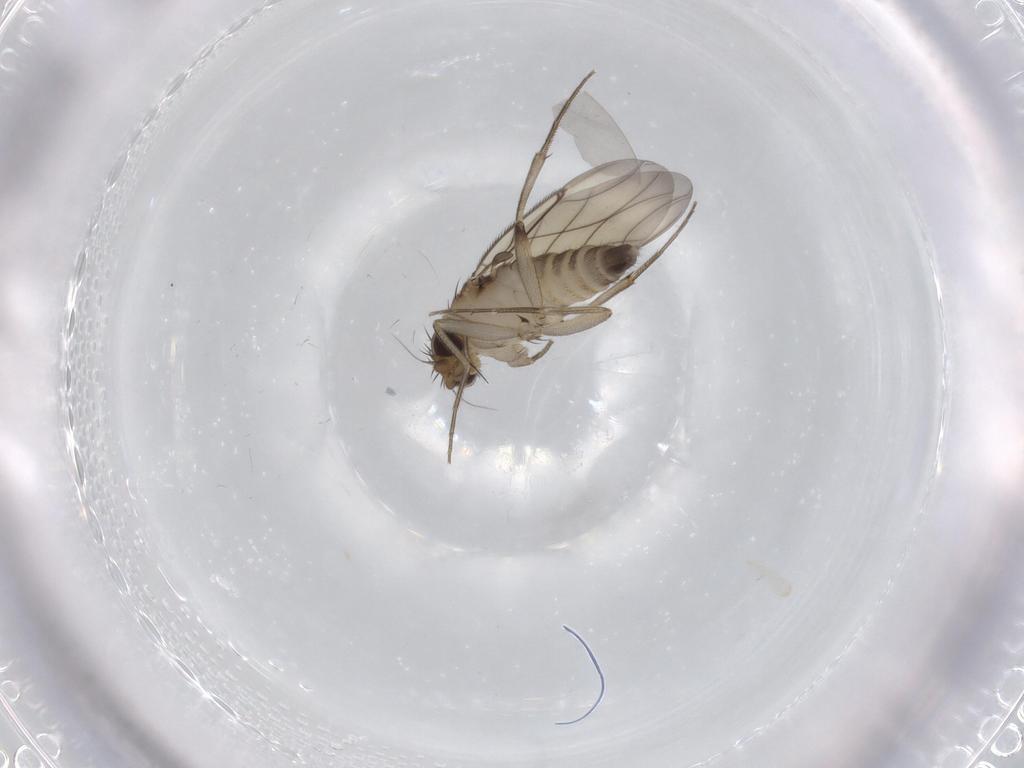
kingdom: Animalia
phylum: Arthropoda
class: Insecta
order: Diptera
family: Phoridae
